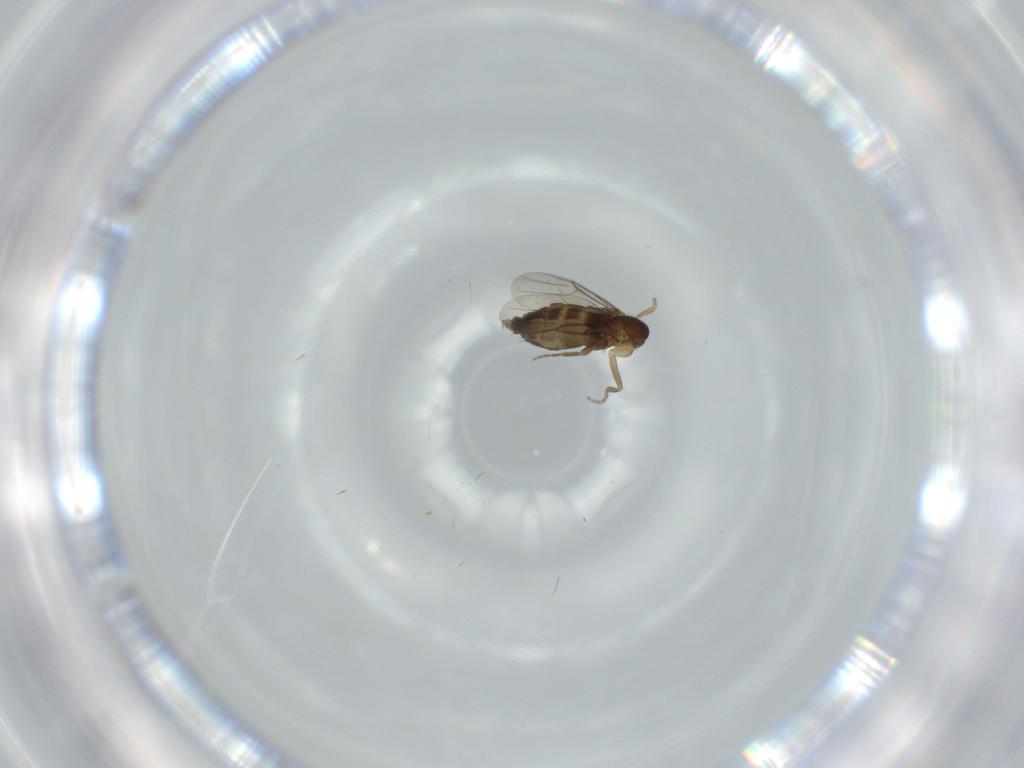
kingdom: Animalia
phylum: Arthropoda
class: Insecta
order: Diptera
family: Phoridae
